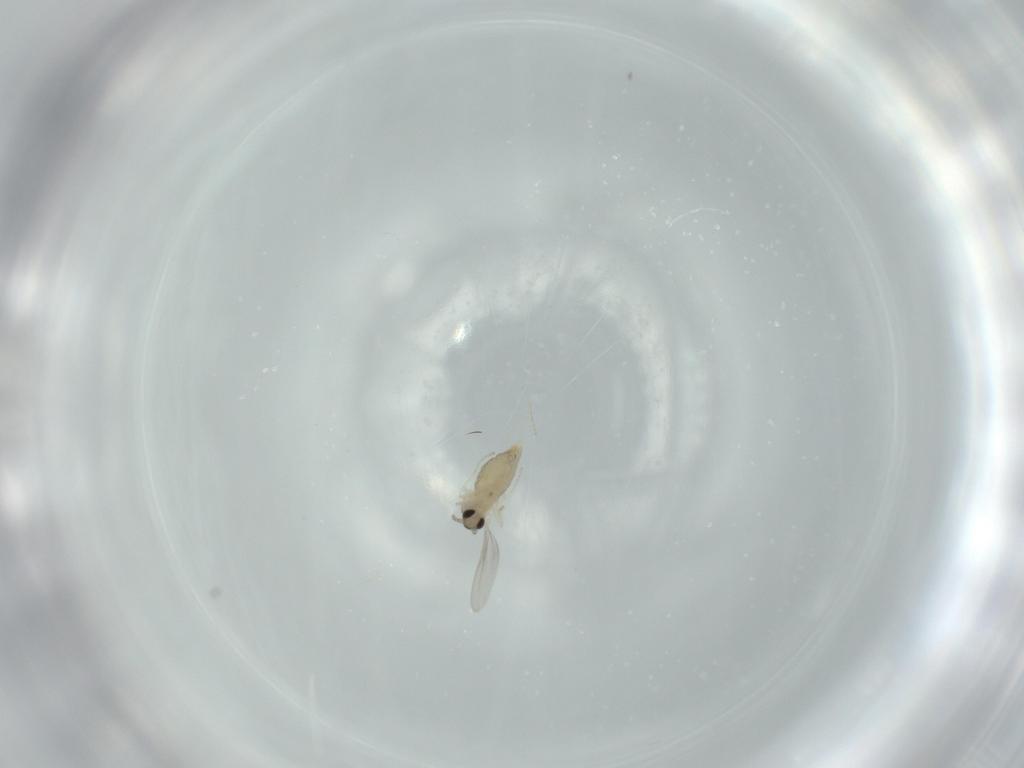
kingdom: Animalia
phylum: Arthropoda
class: Insecta
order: Diptera
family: Cecidomyiidae
